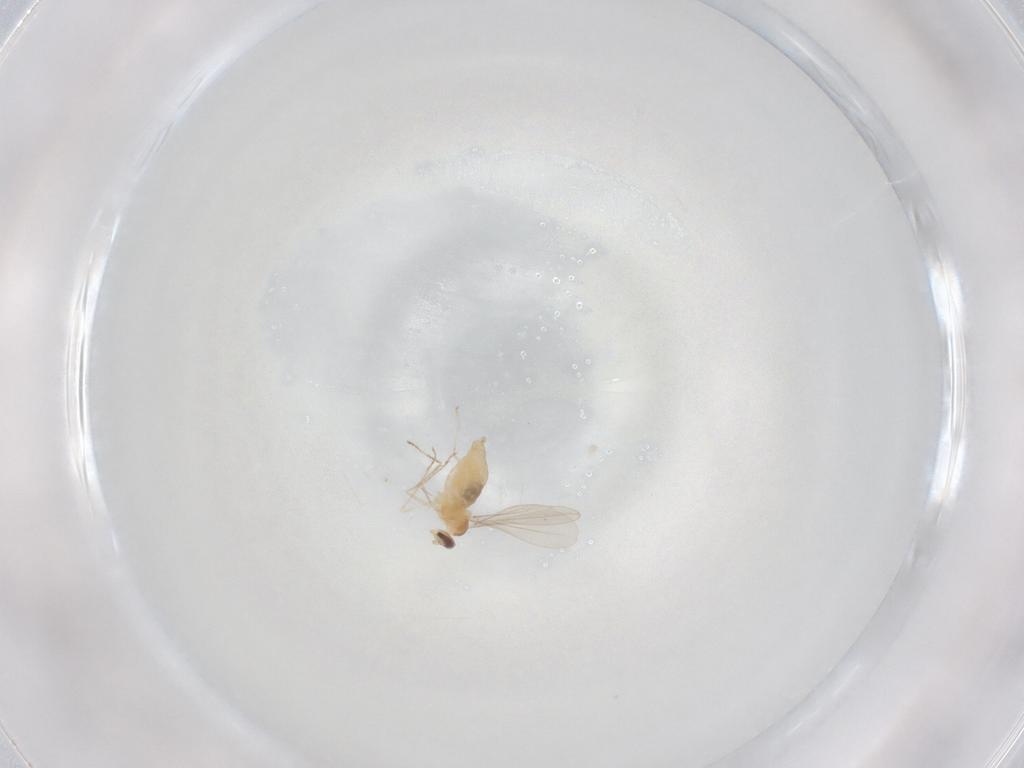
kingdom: Animalia
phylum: Arthropoda
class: Insecta
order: Diptera
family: Cecidomyiidae
